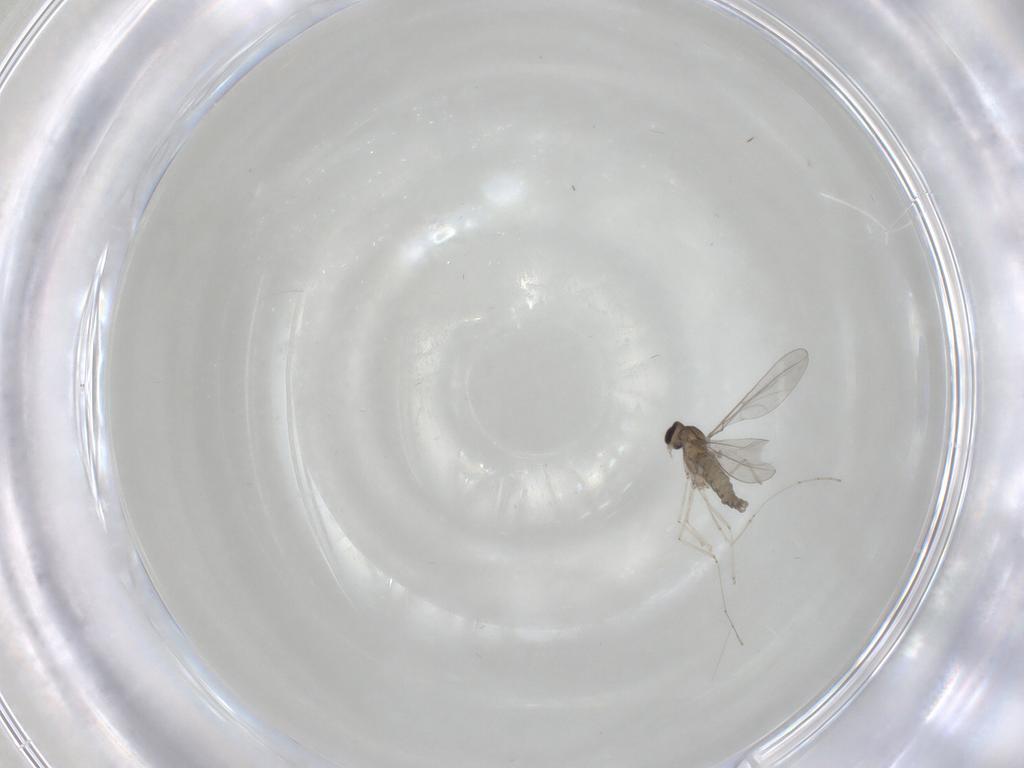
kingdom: Animalia
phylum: Arthropoda
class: Insecta
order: Diptera
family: Cecidomyiidae
